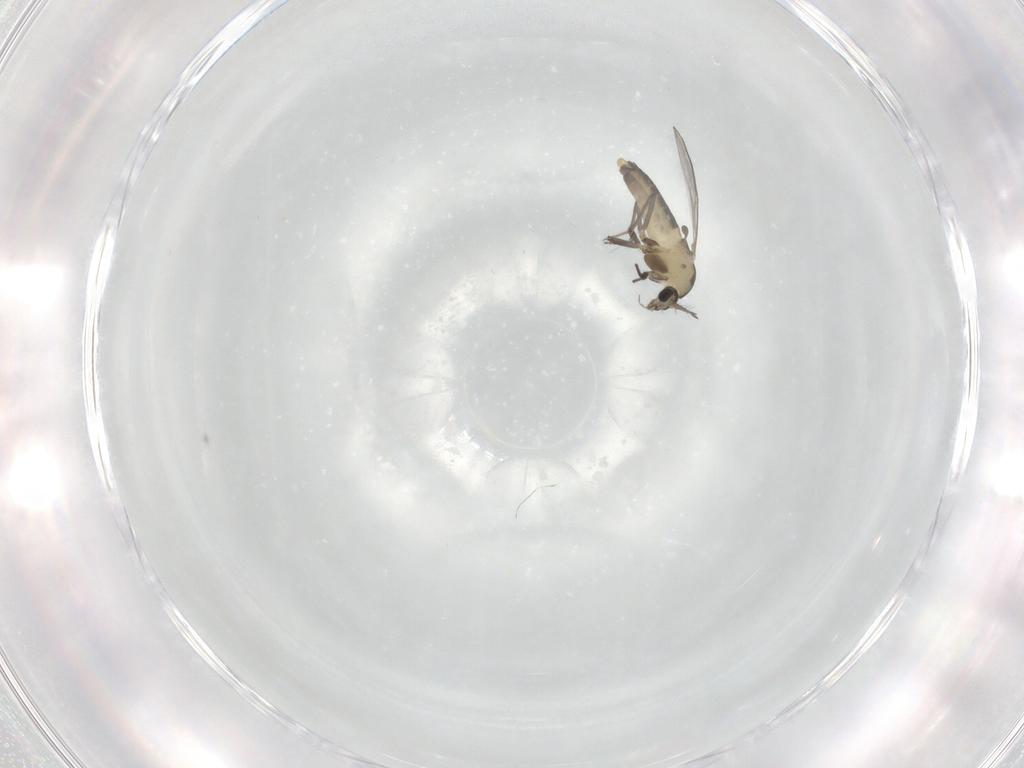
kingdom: Animalia
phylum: Arthropoda
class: Insecta
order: Diptera
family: Chironomidae
